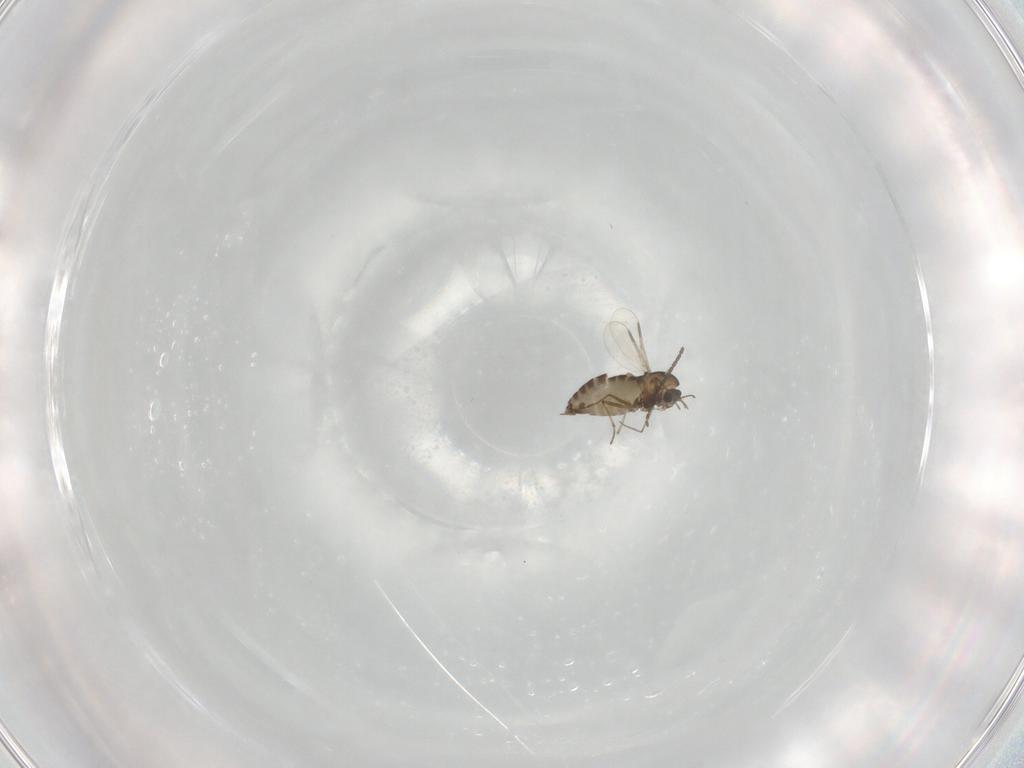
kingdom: Animalia
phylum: Arthropoda
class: Insecta
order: Diptera
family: Chironomidae
